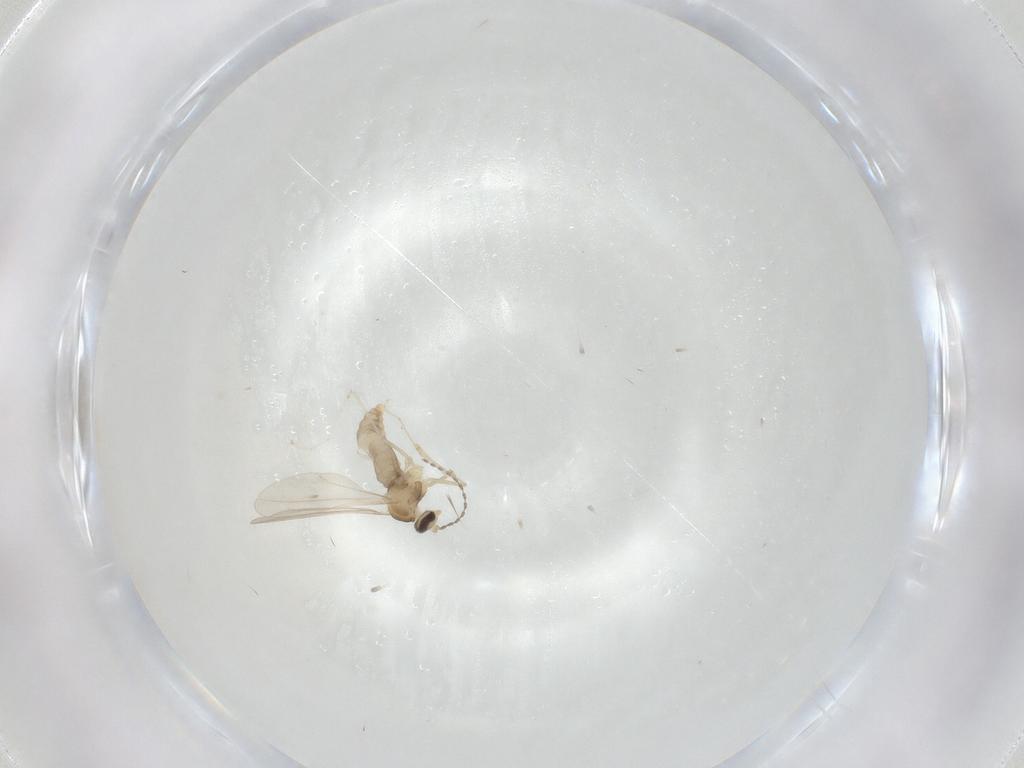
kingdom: Animalia
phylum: Arthropoda
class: Insecta
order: Diptera
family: Cecidomyiidae
